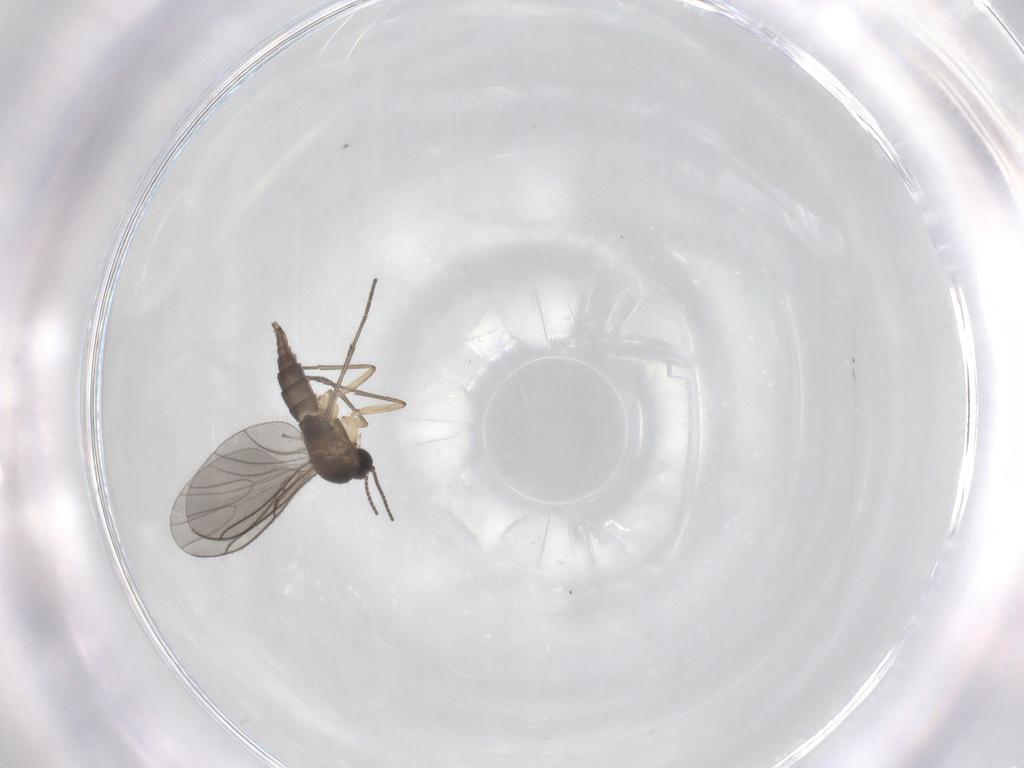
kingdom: Animalia
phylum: Arthropoda
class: Insecta
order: Diptera
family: Sciaridae
